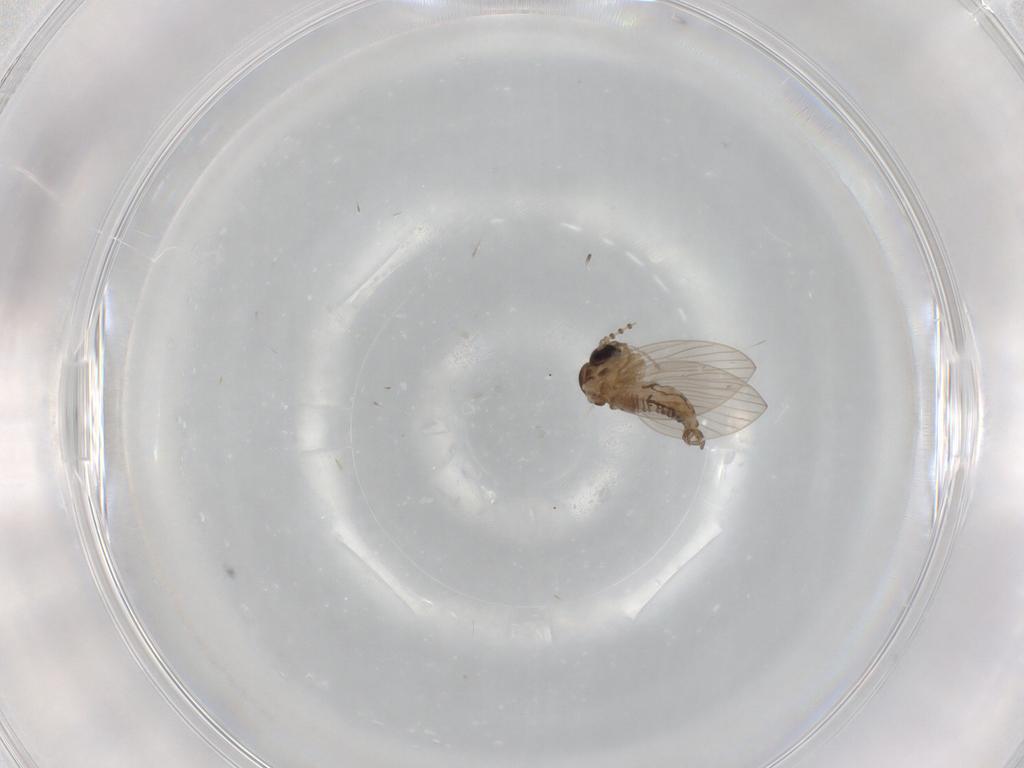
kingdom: Animalia
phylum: Arthropoda
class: Insecta
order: Diptera
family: Psychodidae
